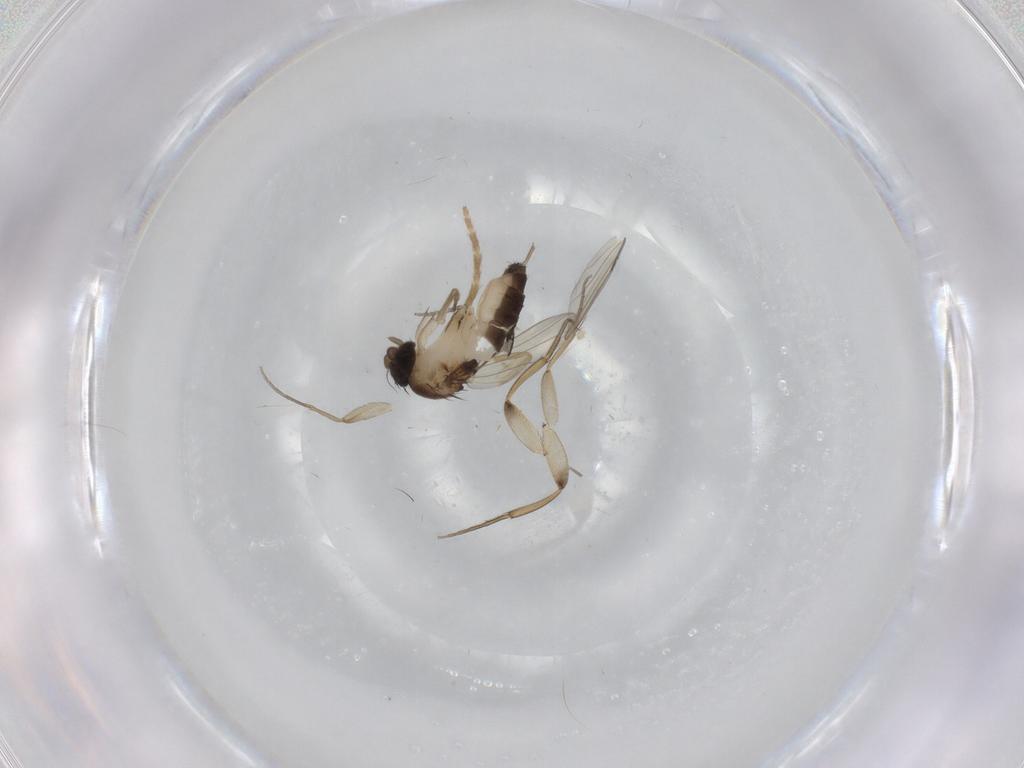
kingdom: Animalia
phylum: Arthropoda
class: Insecta
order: Diptera
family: Phoridae
